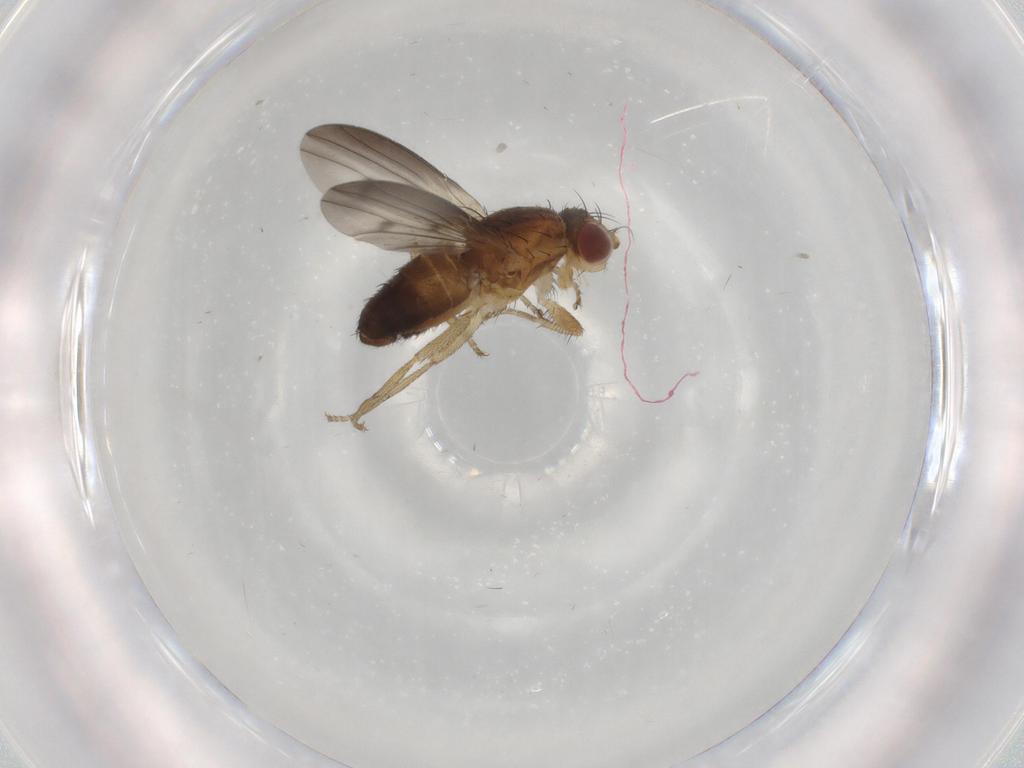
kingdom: Animalia
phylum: Arthropoda
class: Insecta
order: Diptera
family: Heleomyzidae
